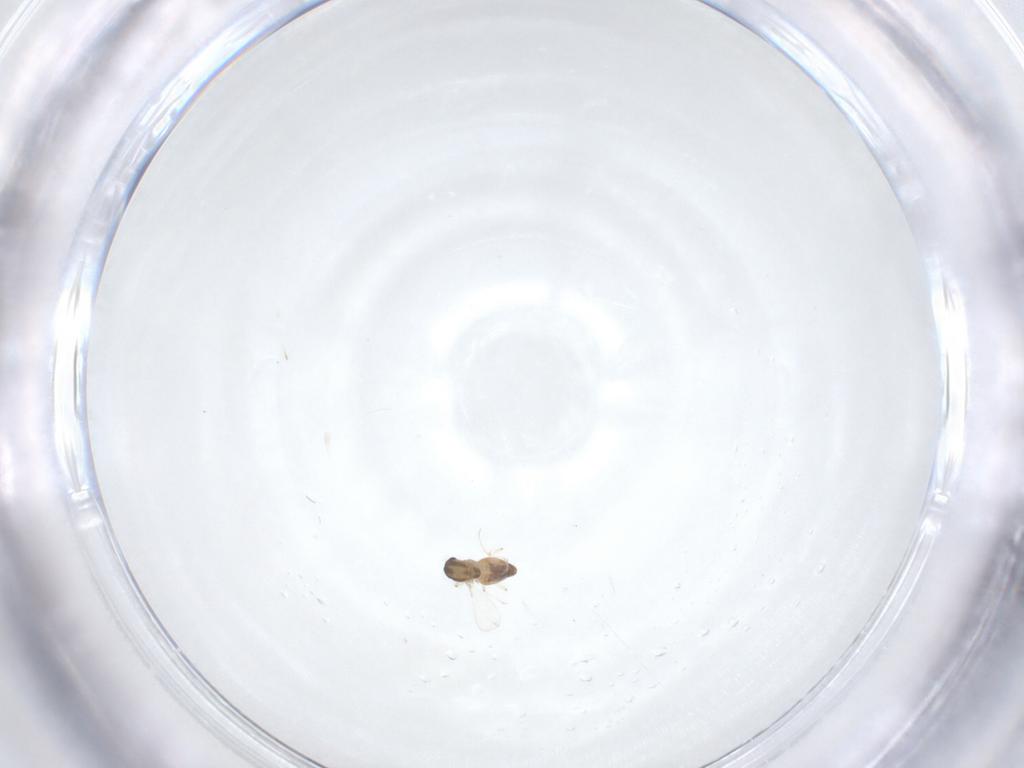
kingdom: Animalia
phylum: Arthropoda
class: Insecta
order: Diptera
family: Chironomidae
